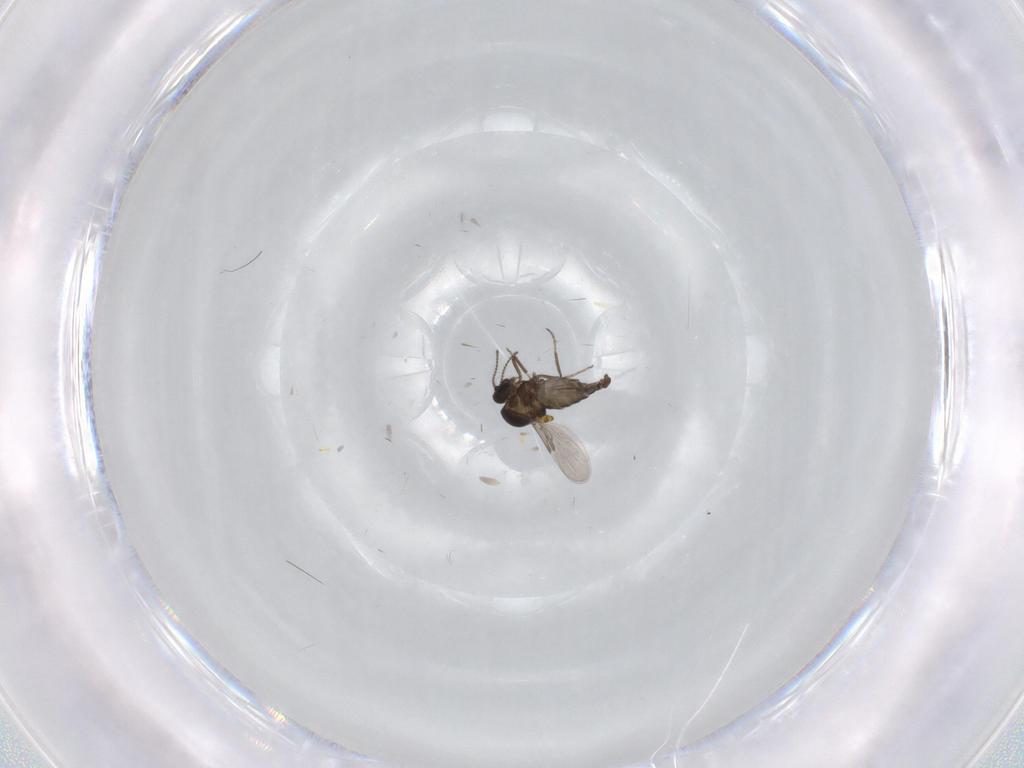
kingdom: Animalia
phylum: Arthropoda
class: Insecta
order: Diptera
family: Ceratopogonidae
